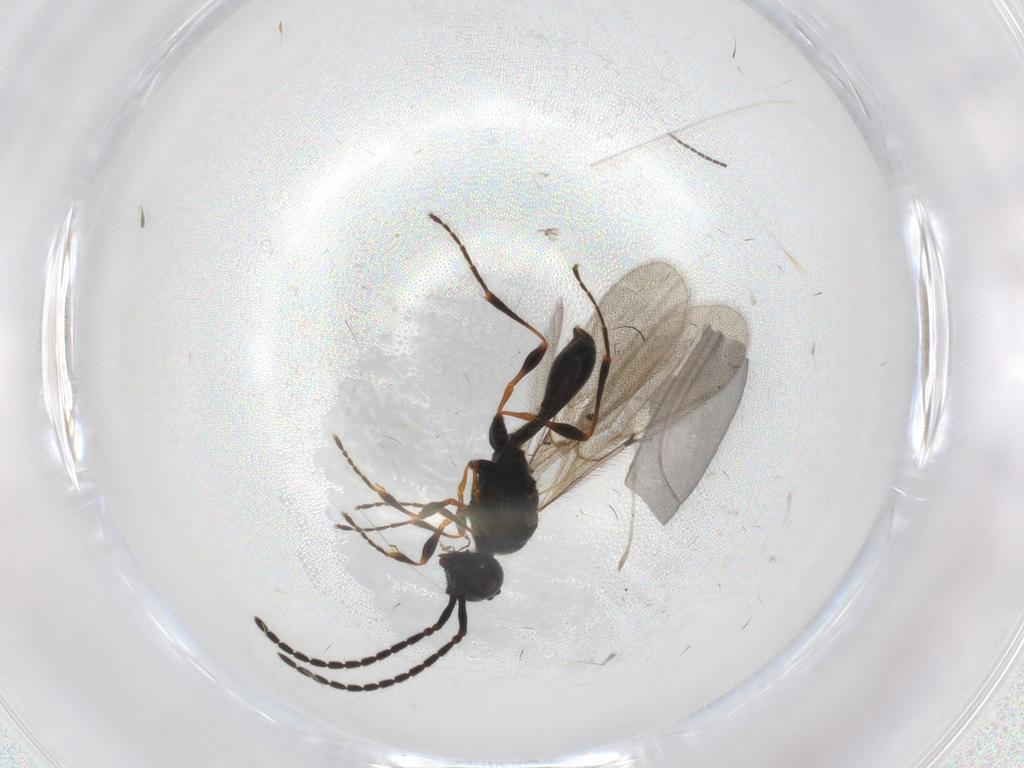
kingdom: Animalia
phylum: Arthropoda
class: Insecta
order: Hymenoptera
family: Diapriidae
